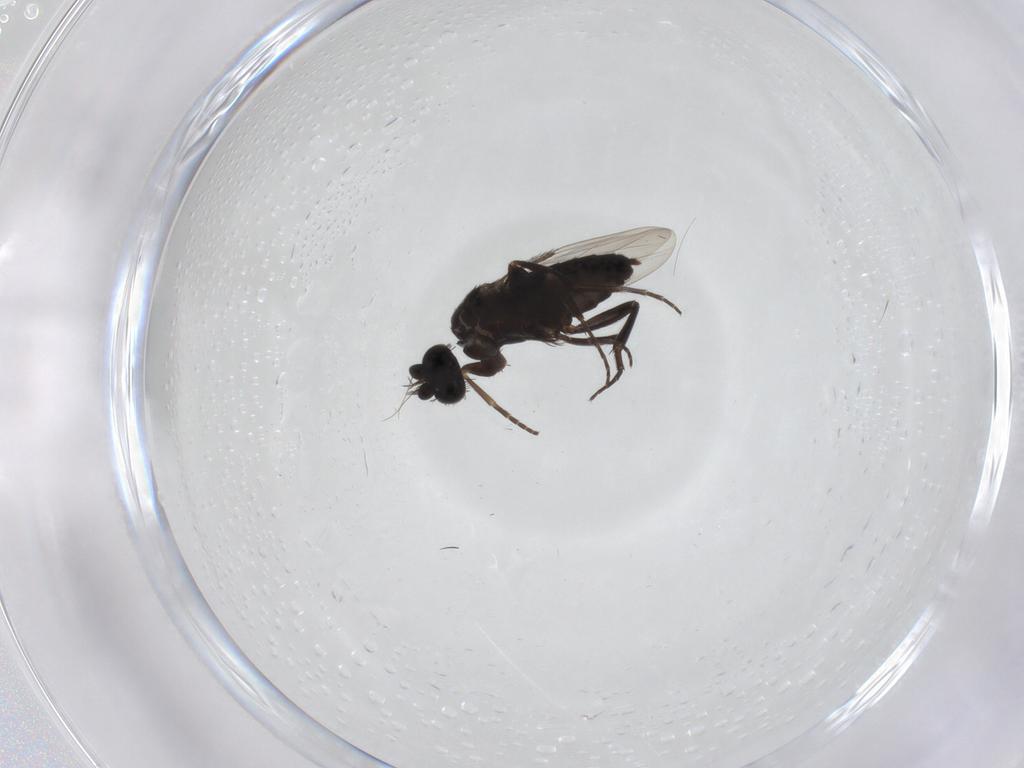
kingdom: Animalia
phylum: Arthropoda
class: Insecta
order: Diptera
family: Phoridae
